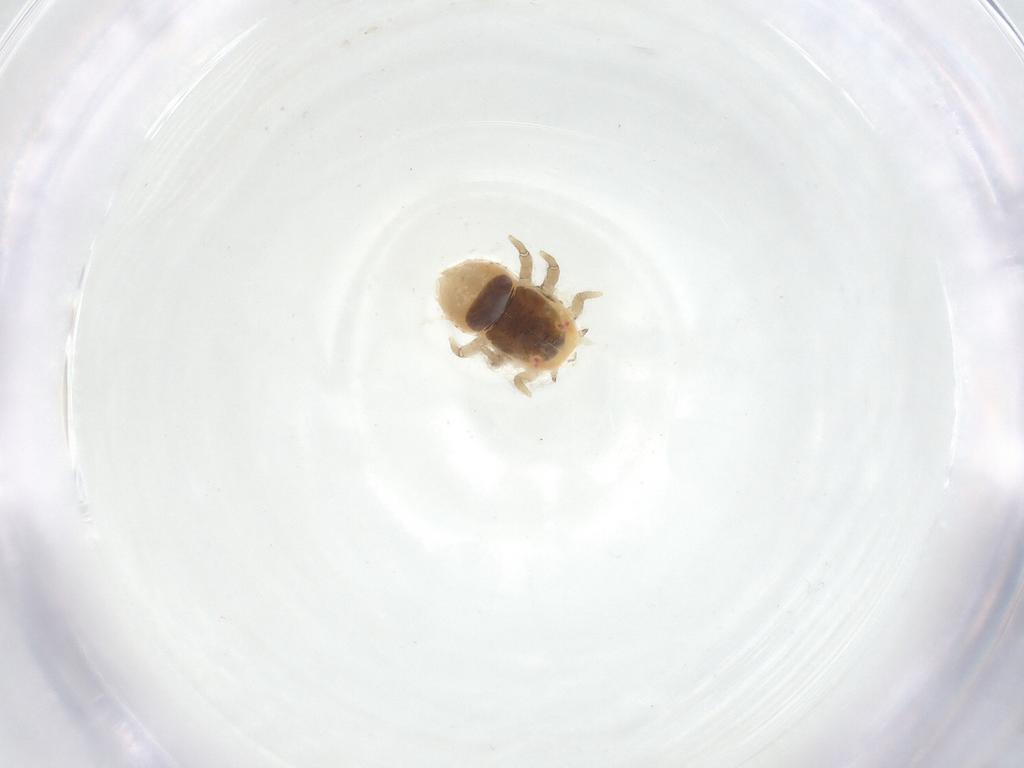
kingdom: Animalia
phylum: Arthropoda
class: Insecta
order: Hemiptera
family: Triozidae
